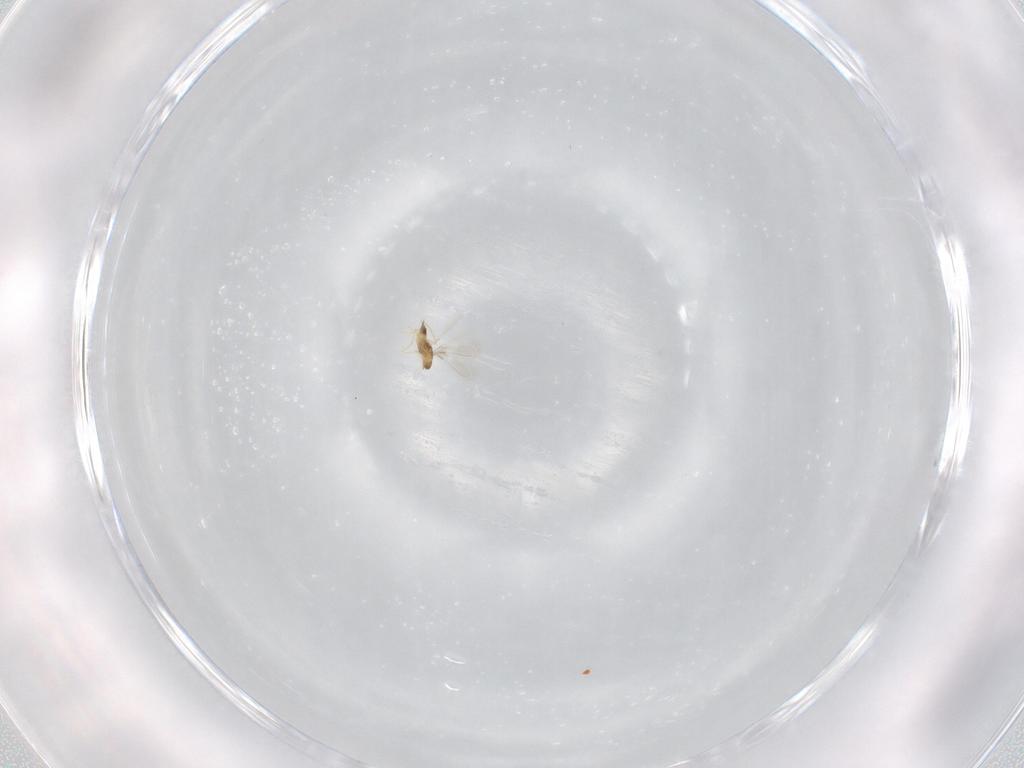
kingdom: Animalia
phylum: Arthropoda
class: Insecta
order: Hymenoptera
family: Mymaridae
